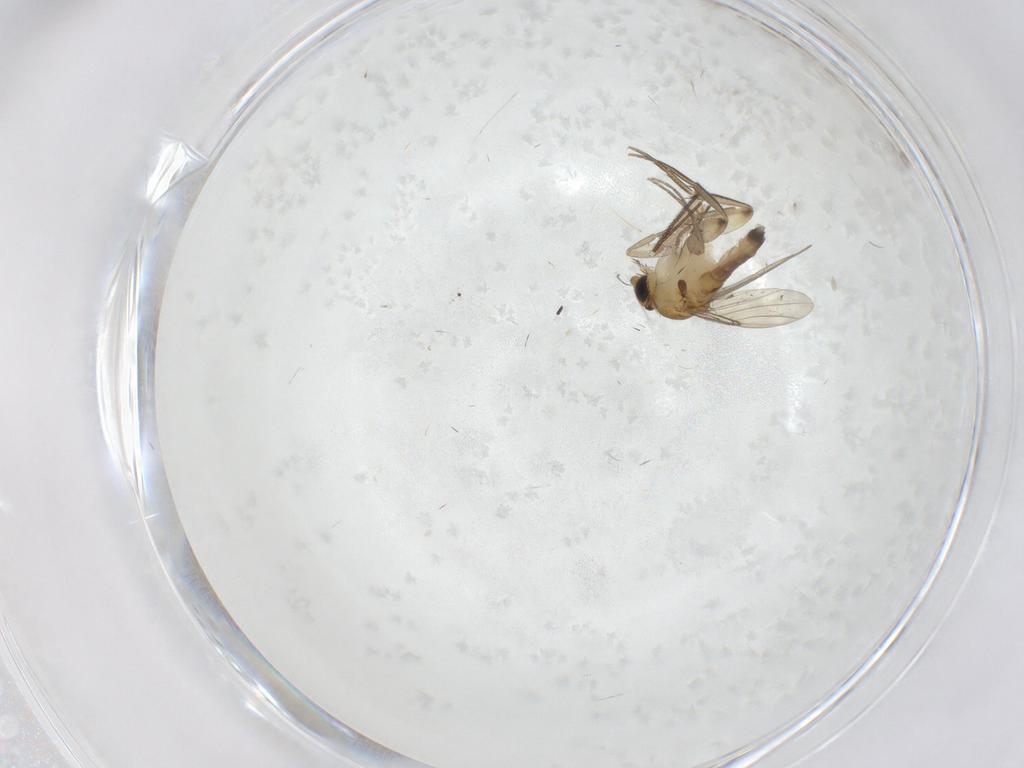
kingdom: Animalia
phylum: Arthropoda
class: Insecta
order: Diptera
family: Phoridae
